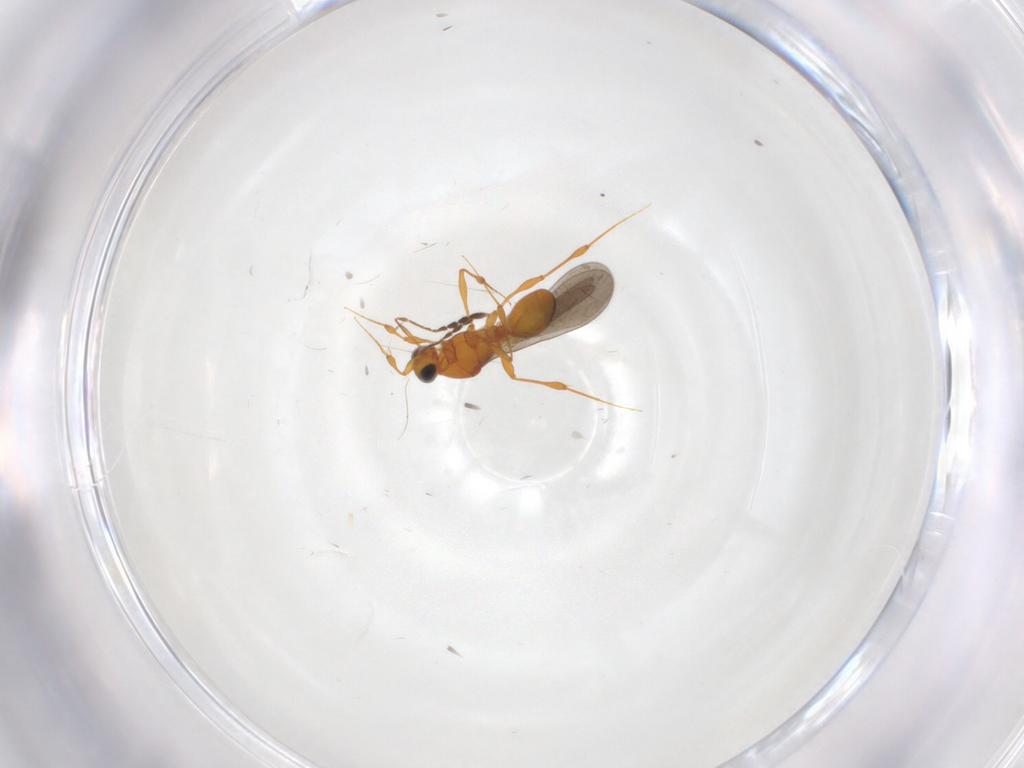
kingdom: Animalia
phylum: Arthropoda
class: Insecta
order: Hymenoptera
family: Platygastridae
